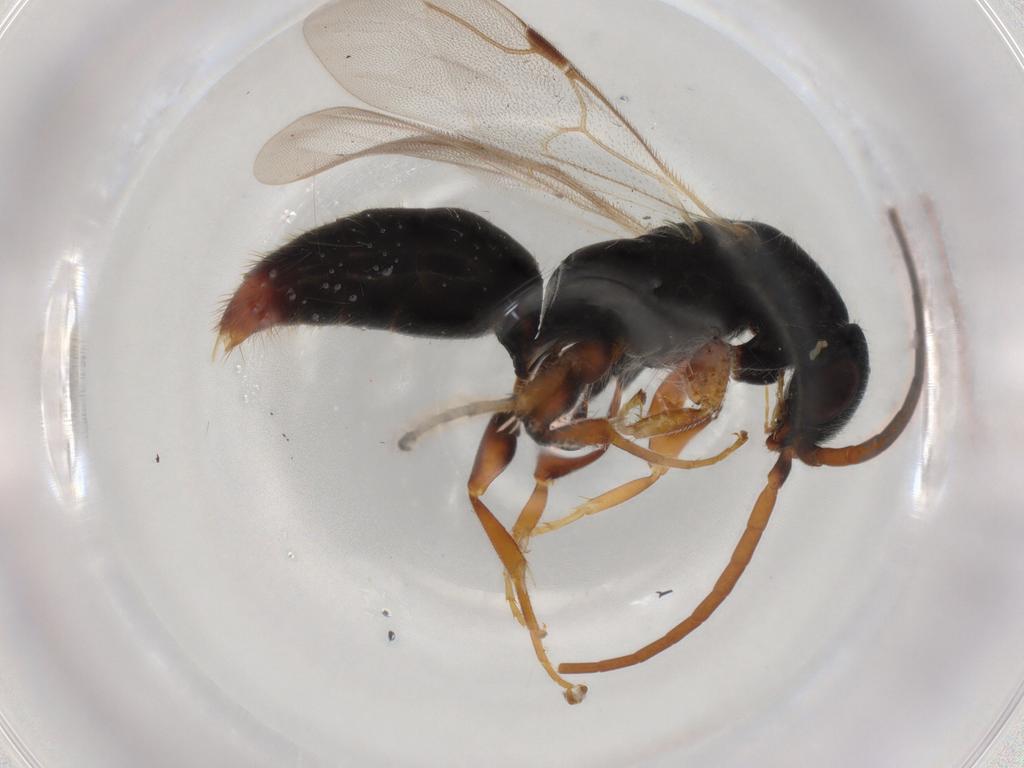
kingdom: Animalia
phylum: Arthropoda
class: Insecta
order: Hymenoptera
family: Bethylidae
